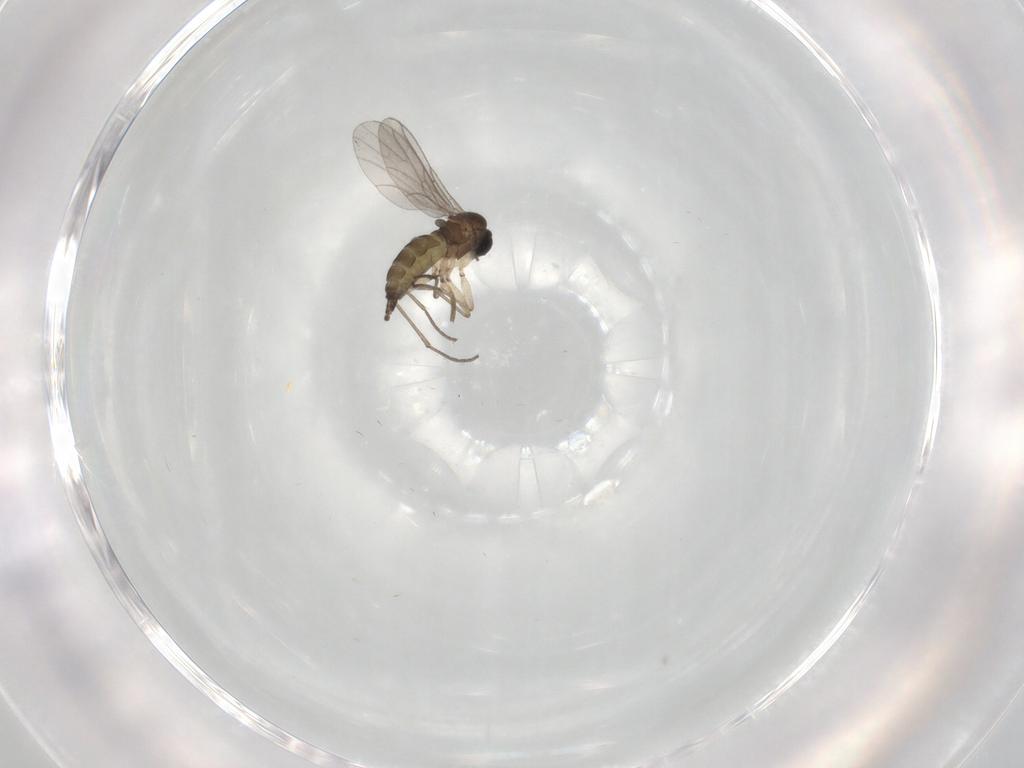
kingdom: Animalia
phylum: Arthropoda
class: Insecta
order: Diptera
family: Sciaridae
